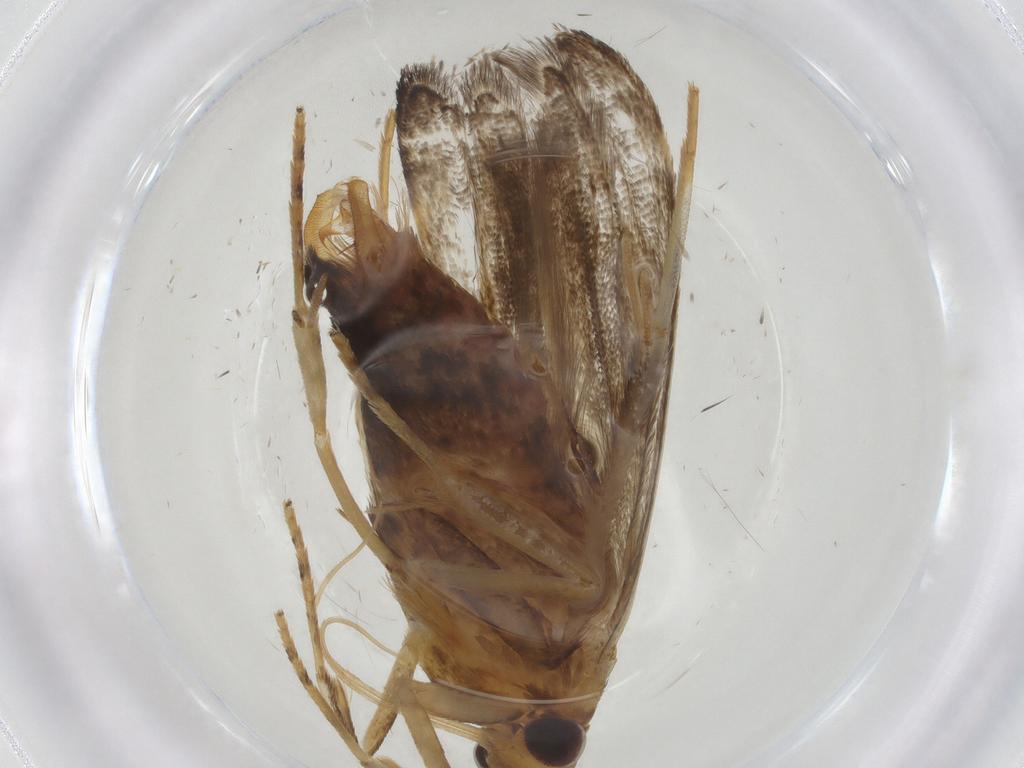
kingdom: Animalia
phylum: Arthropoda
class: Insecta
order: Lepidoptera
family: Lecithoceridae
